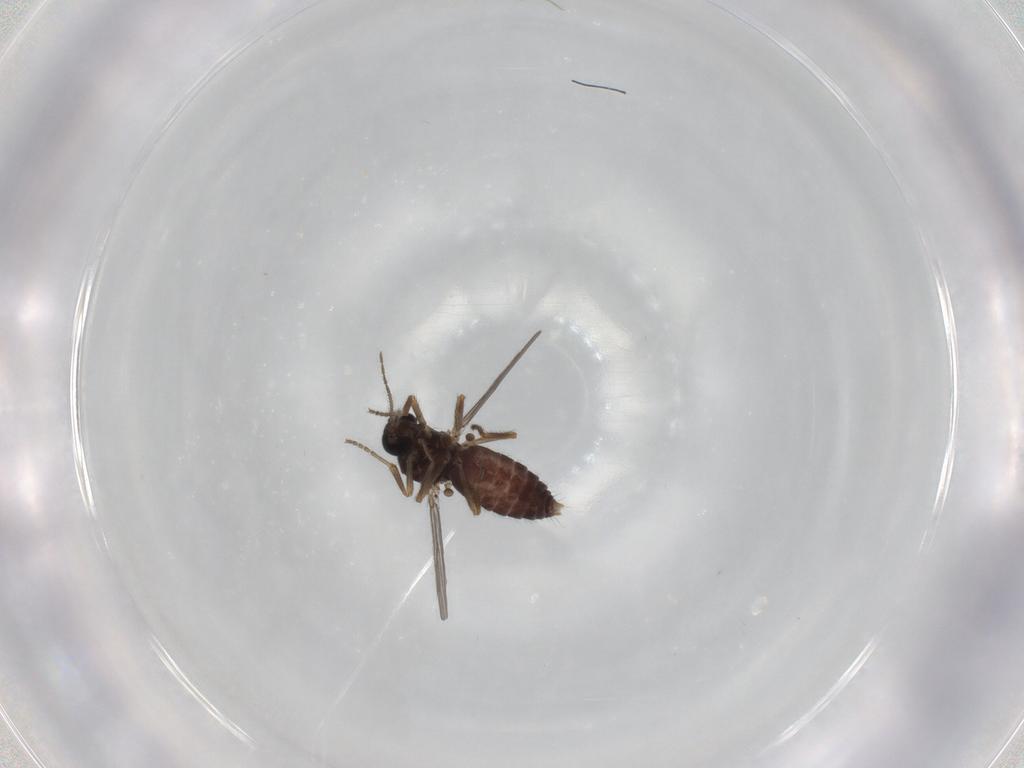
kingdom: Animalia
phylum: Arthropoda
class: Insecta
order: Diptera
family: Ceratopogonidae
